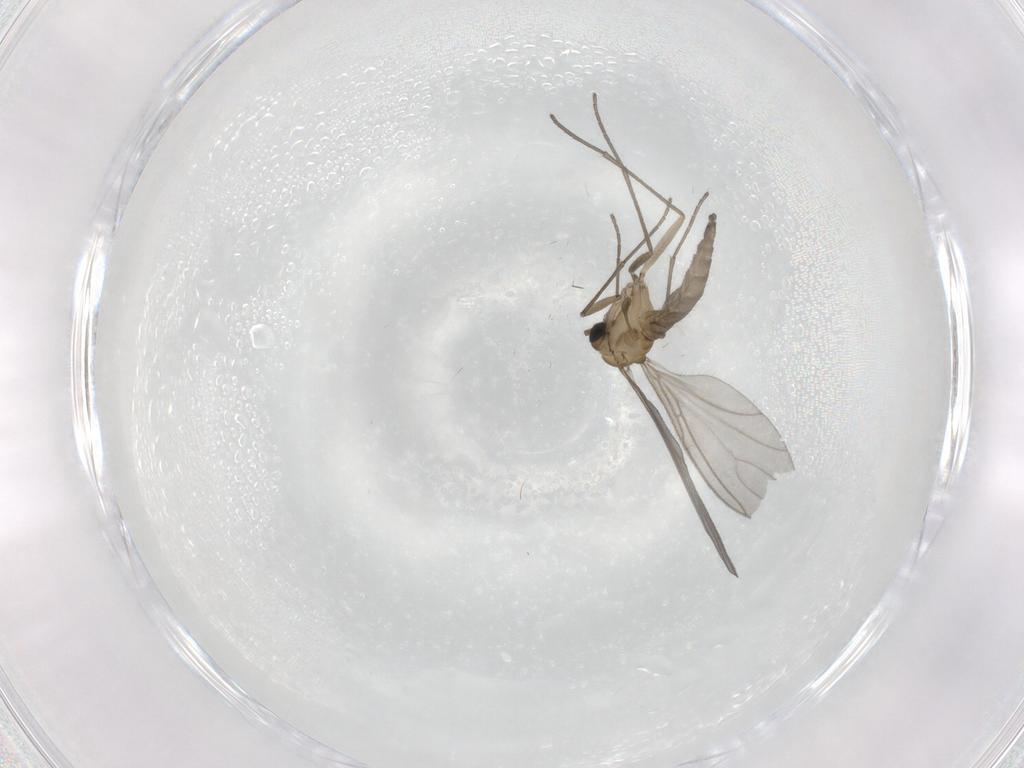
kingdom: Animalia
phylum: Arthropoda
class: Insecta
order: Diptera
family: Sciaridae
